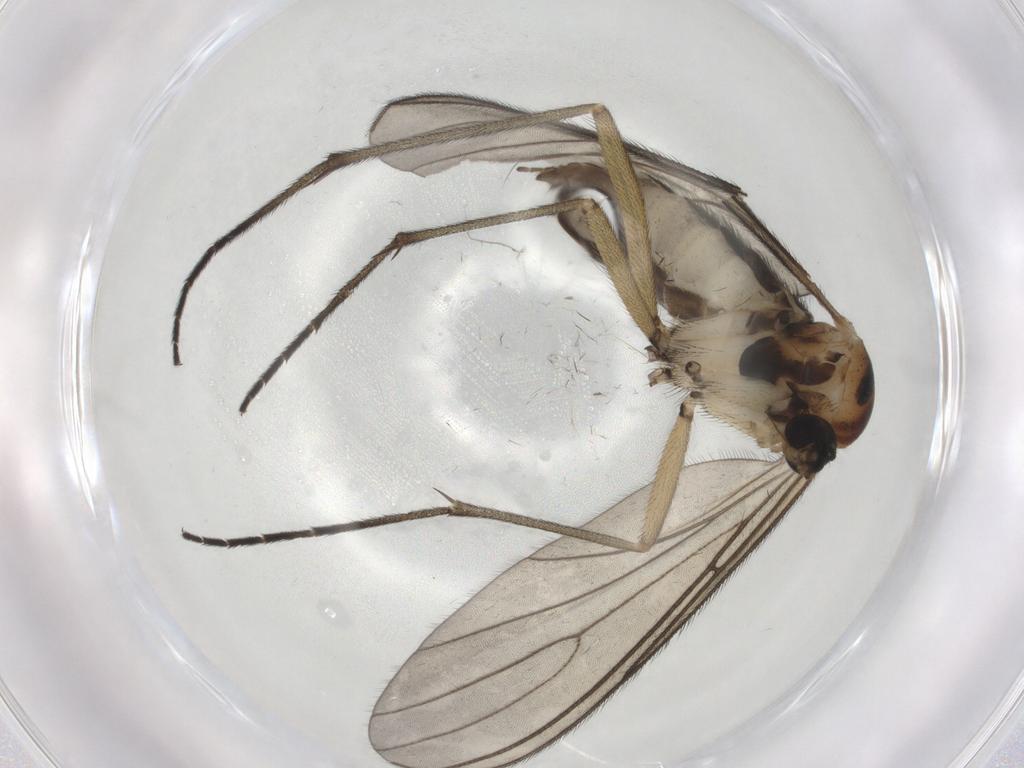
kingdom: Animalia
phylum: Arthropoda
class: Insecta
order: Diptera
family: Sciaridae
